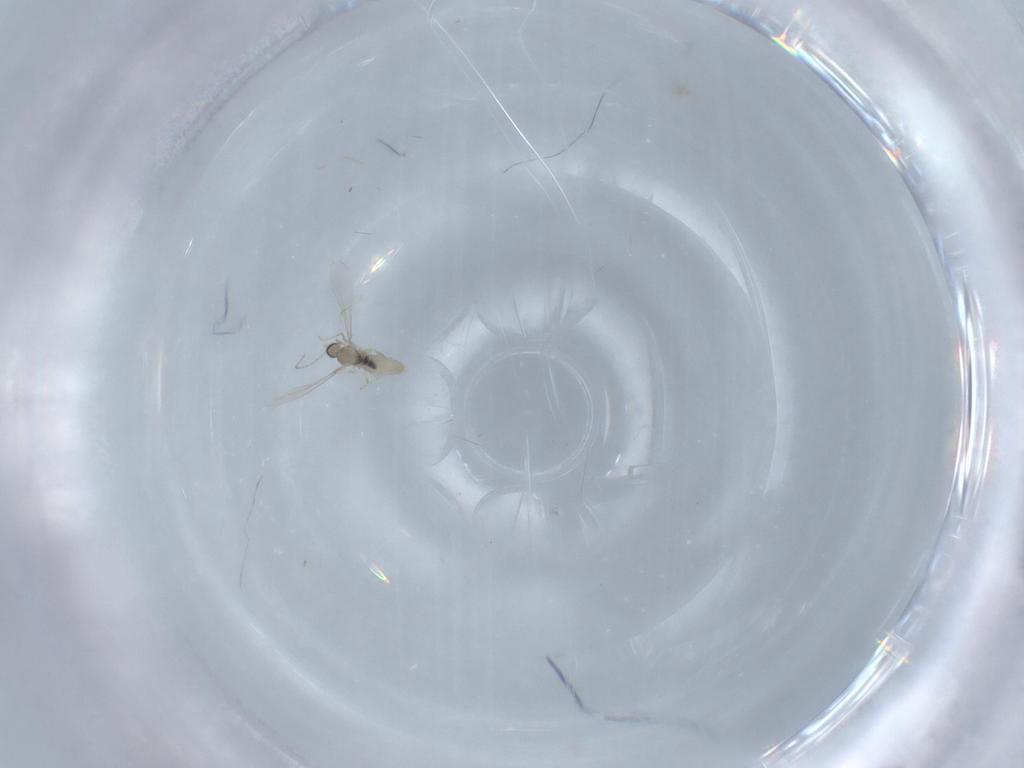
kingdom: Animalia
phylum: Arthropoda
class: Insecta
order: Diptera
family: Cecidomyiidae
